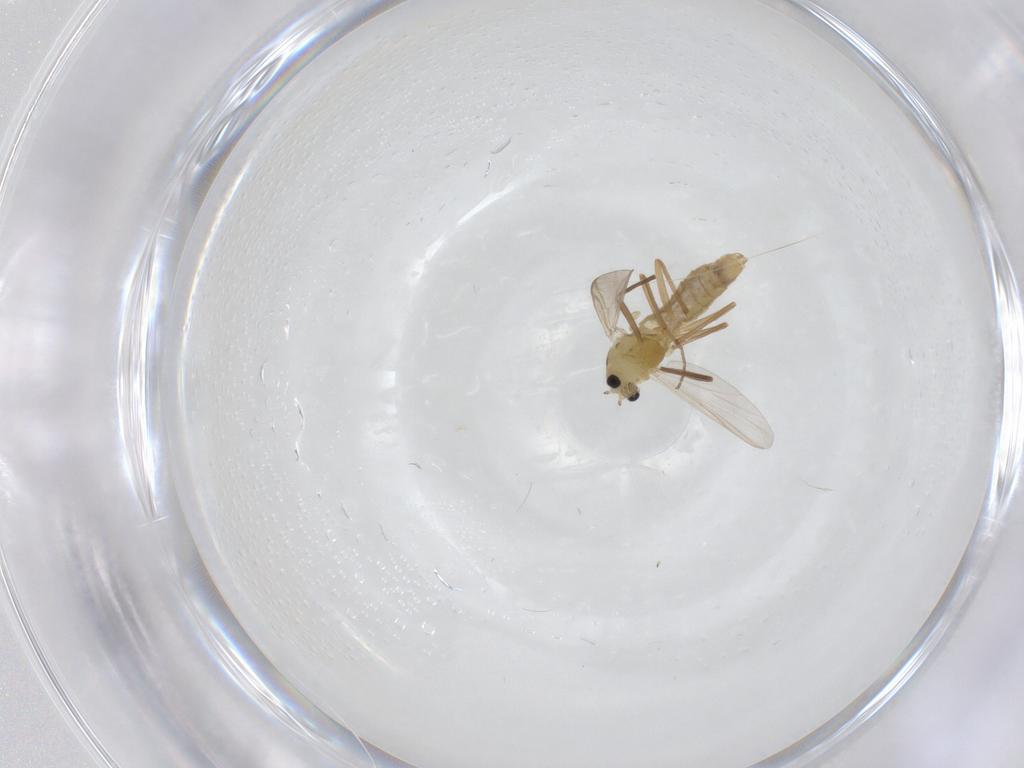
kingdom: Animalia
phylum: Arthropoda
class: Insecta
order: Diptera
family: Chironomidae
